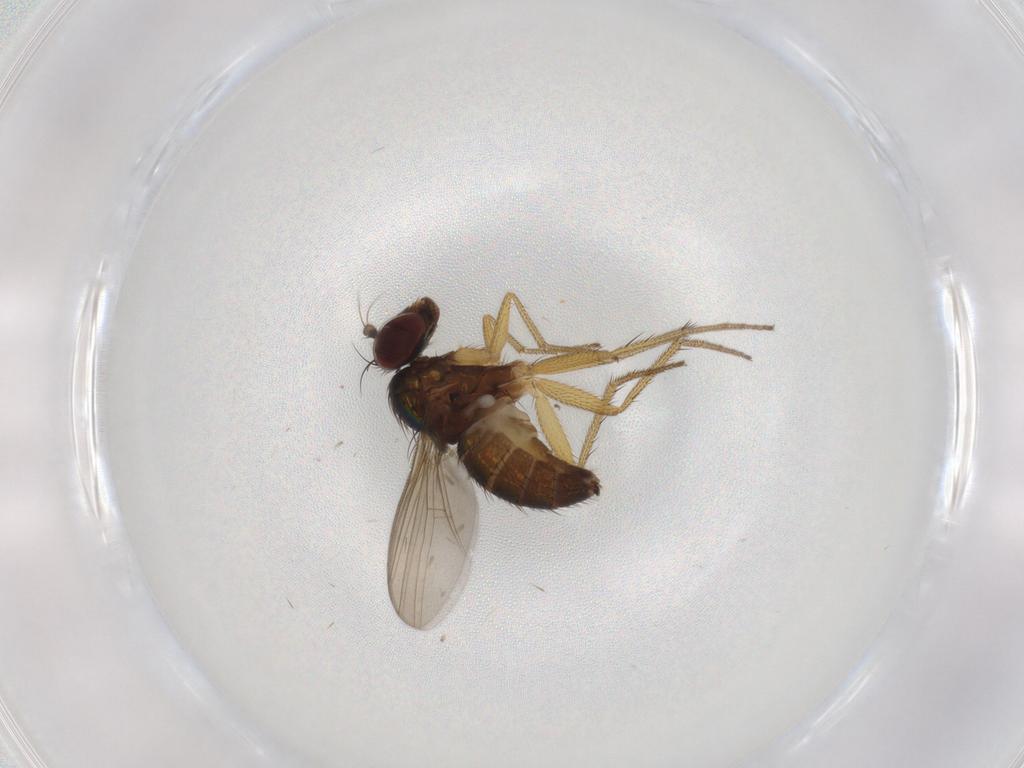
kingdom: Animalia
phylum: Arthropoda
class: Insecta
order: Diptera
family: Dolichopodidae
